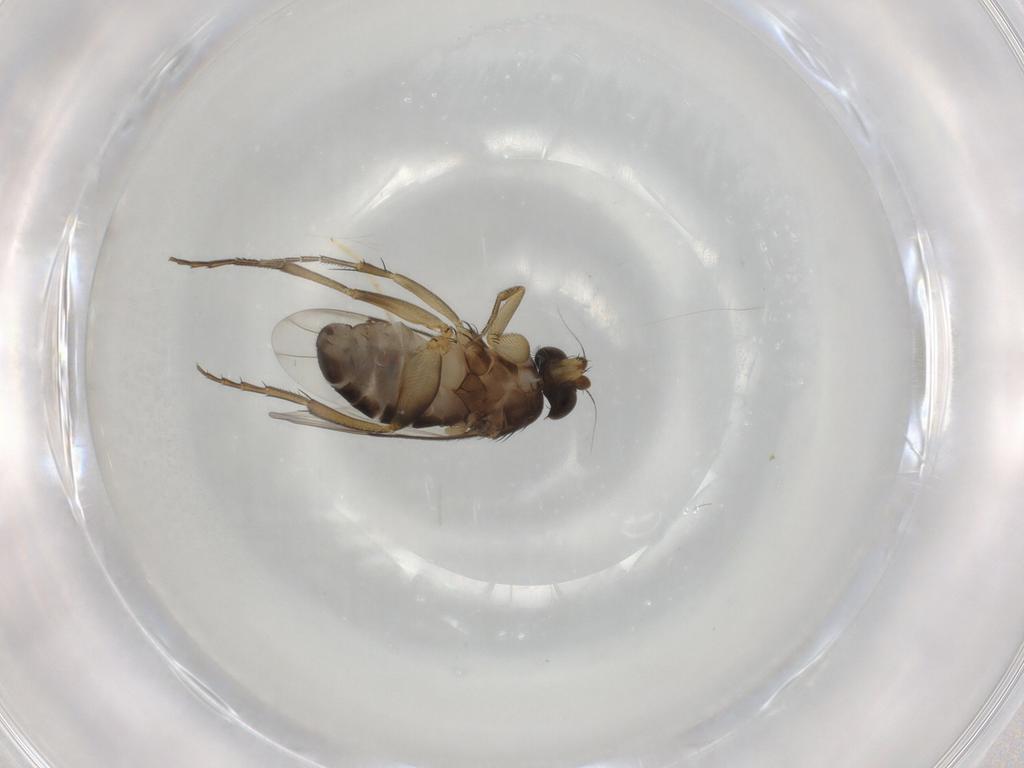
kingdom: Animalia
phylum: Arthropoda
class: Insecta
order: Diptera
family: Phoridae
